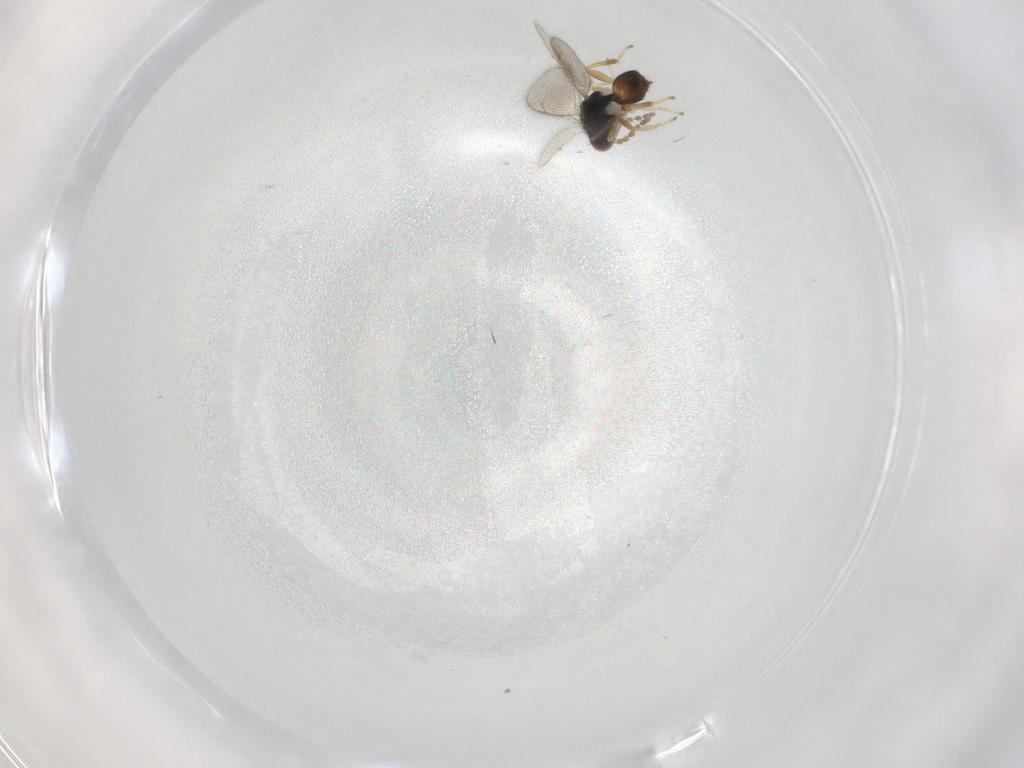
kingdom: Animalia
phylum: Arthropoda
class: Insecta
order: Hymenoptera
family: Eulophidae
